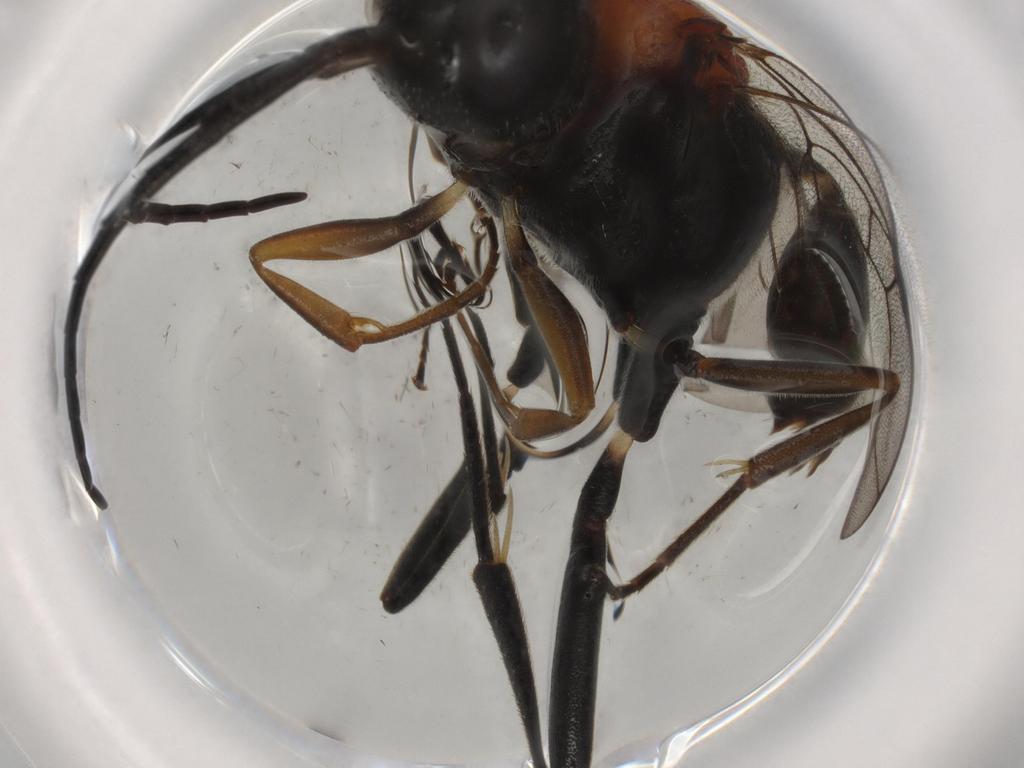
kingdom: Animalia
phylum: Arthropoda
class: Insecta
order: Hymenoptera
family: Evaniidae
